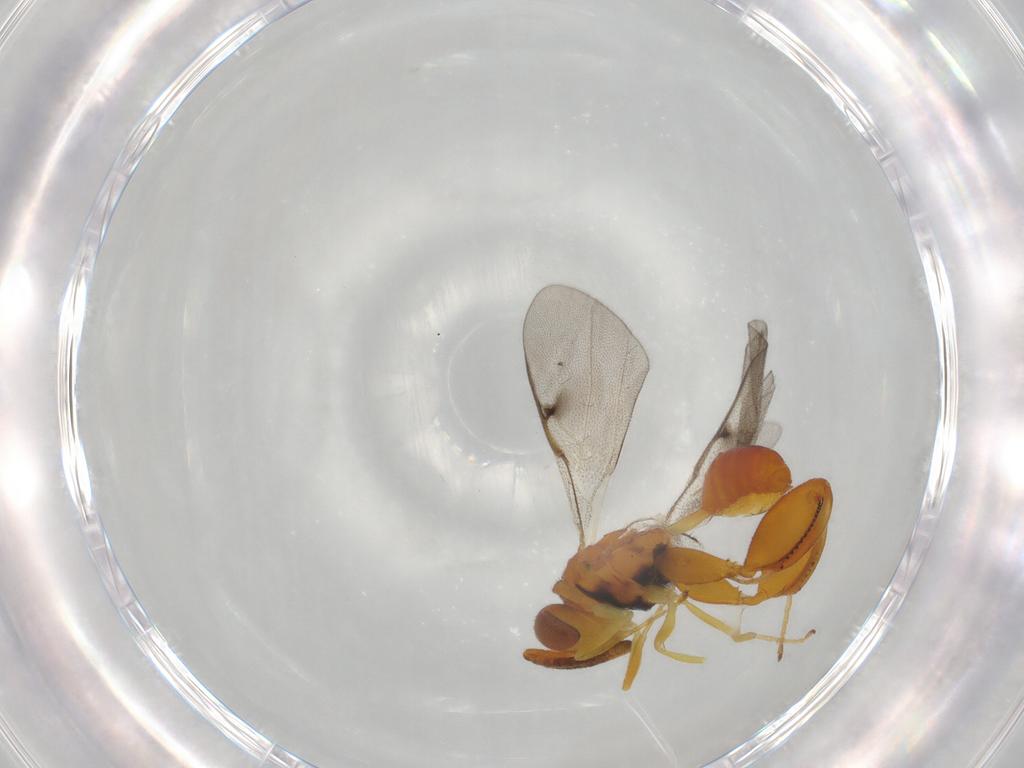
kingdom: Animalia
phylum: Arthropoda
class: Insecta
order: Hymenoptera
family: Chalcididae
